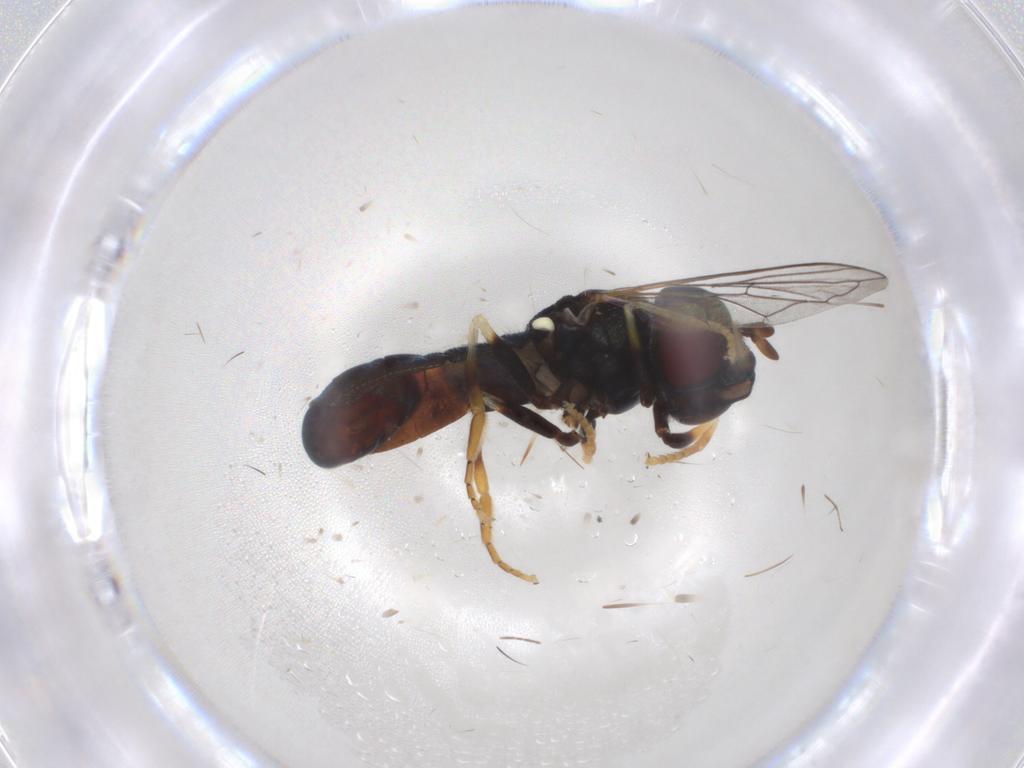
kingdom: Animalia
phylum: Arthropoda
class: Insecta
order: Diptera
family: Syrphidae
